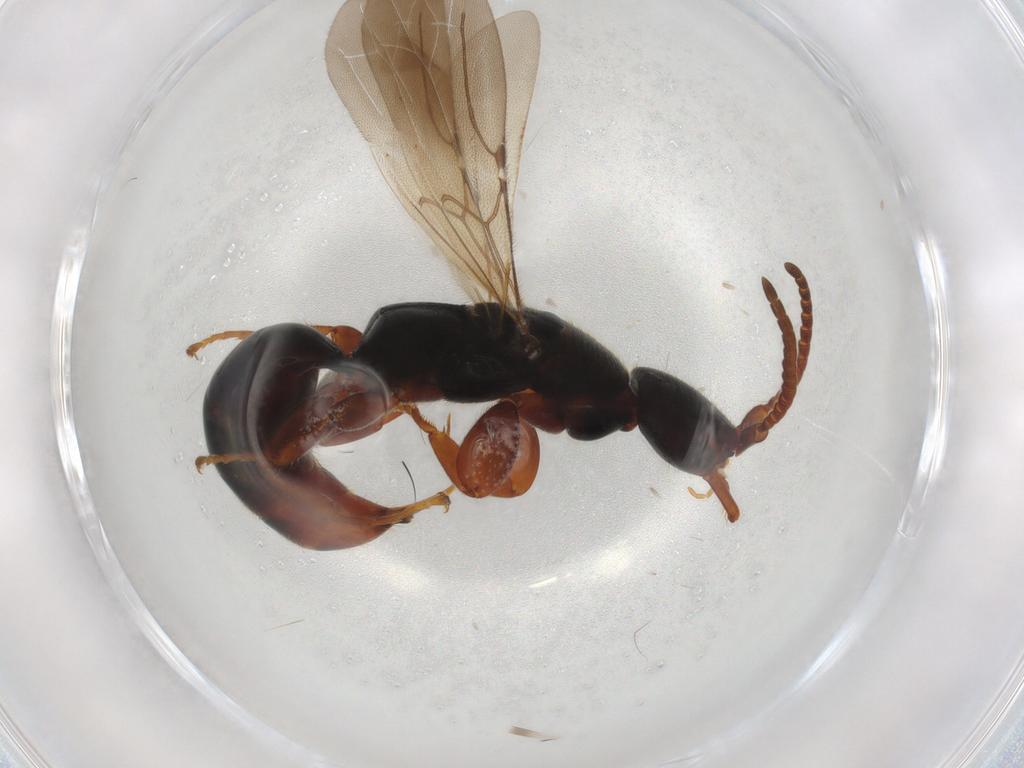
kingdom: Animalia
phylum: Arthropoda
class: Insecta
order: Hymenoptera
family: Bethylidae
